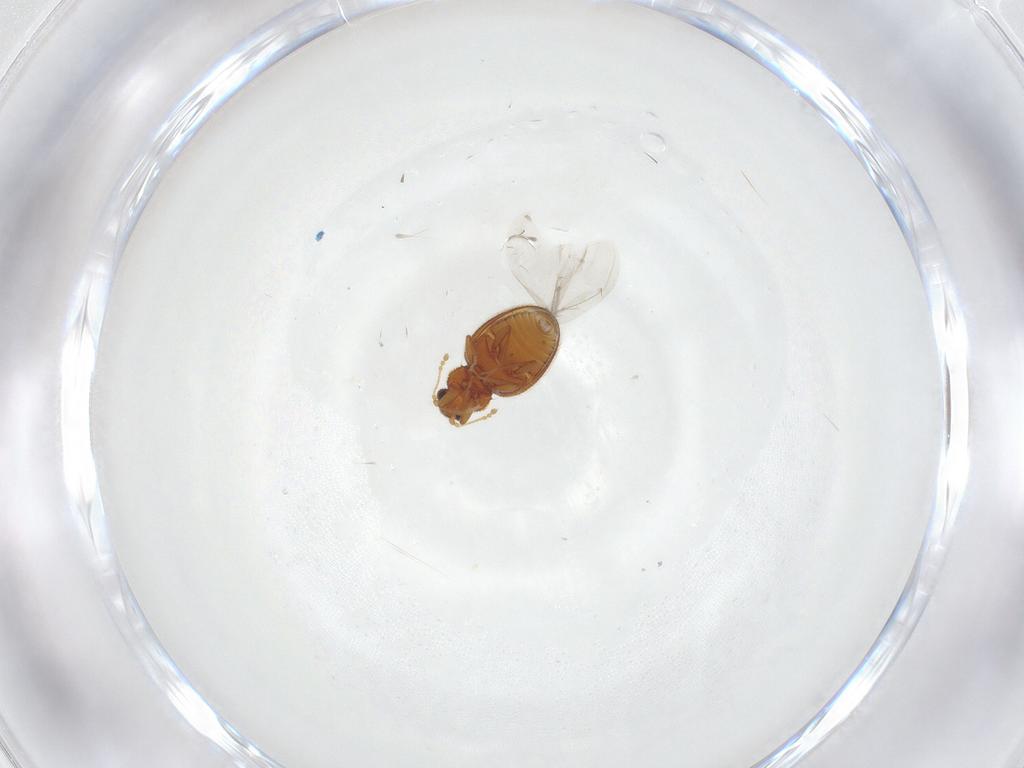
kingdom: Animalia
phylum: Arthropoda
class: Insecta
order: Coleoptera
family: Latridiidae
